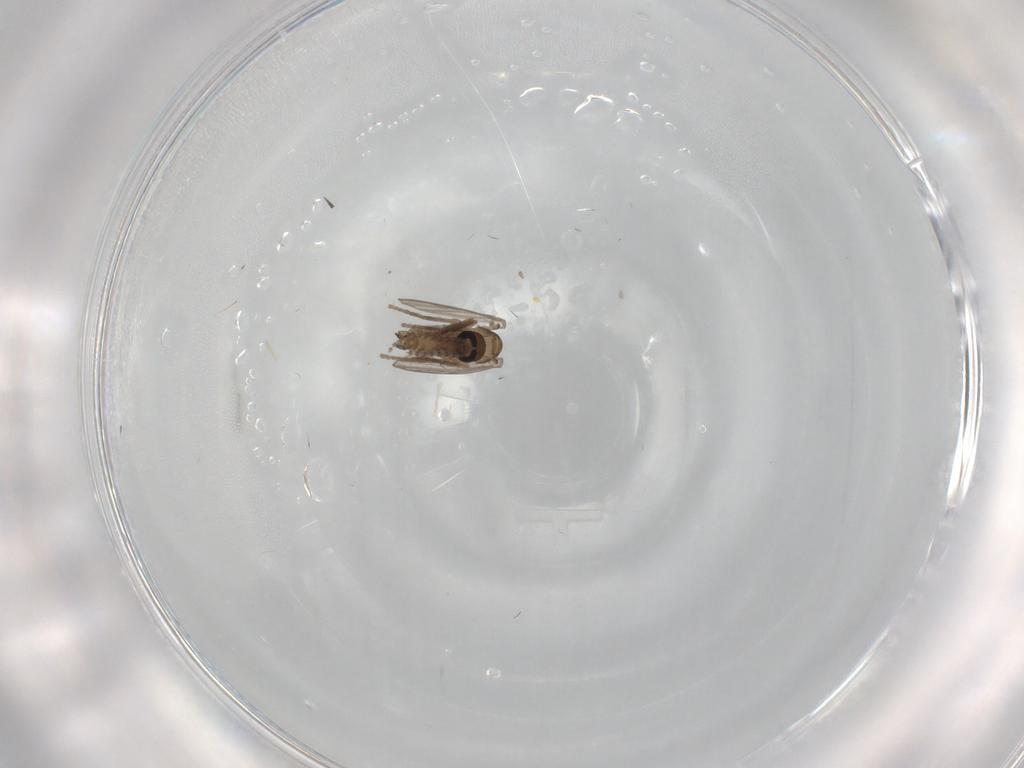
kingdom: Animalia
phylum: Arthropoda
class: Insecta
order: Diptera
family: Psychodidae
